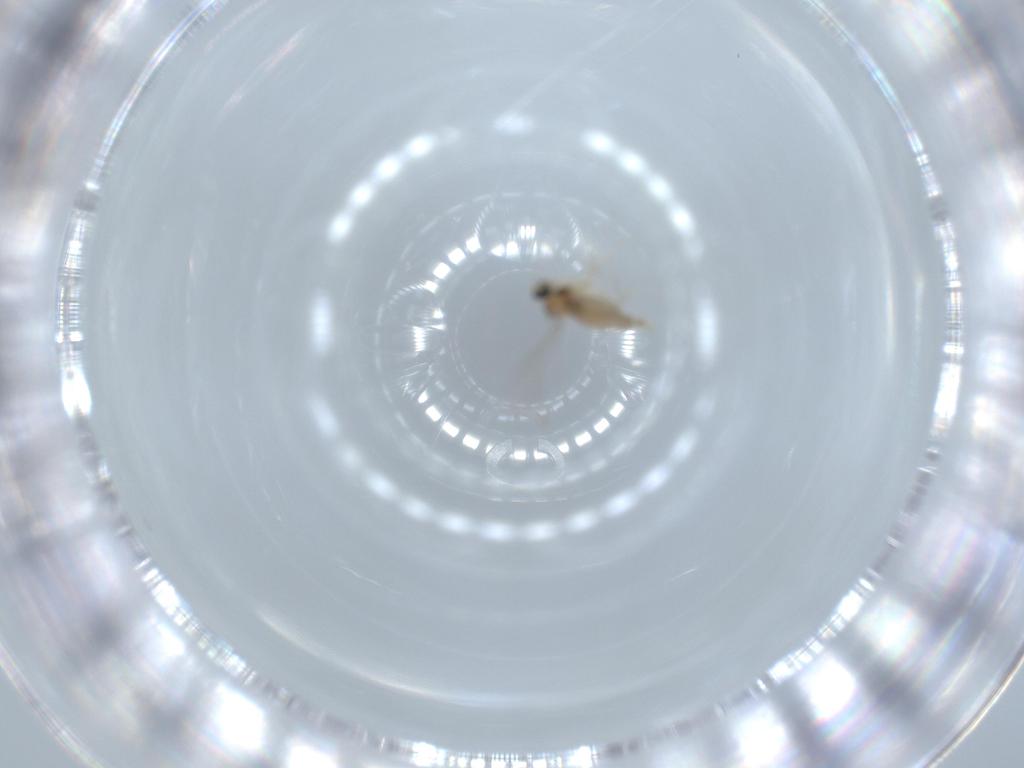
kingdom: Animalia
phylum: Arthropoda
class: Insecta
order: Diptera
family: Cecidomyiidae
